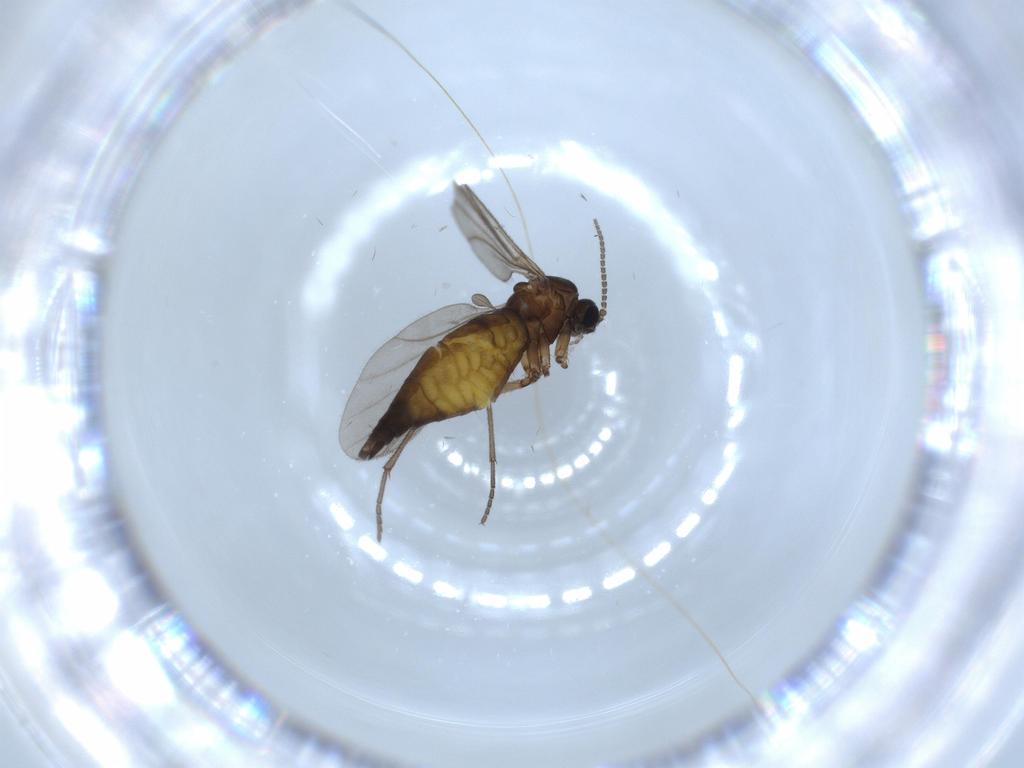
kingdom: Animalia
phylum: Arthropoda
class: Insecta
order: Diptera
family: Sciaridae
